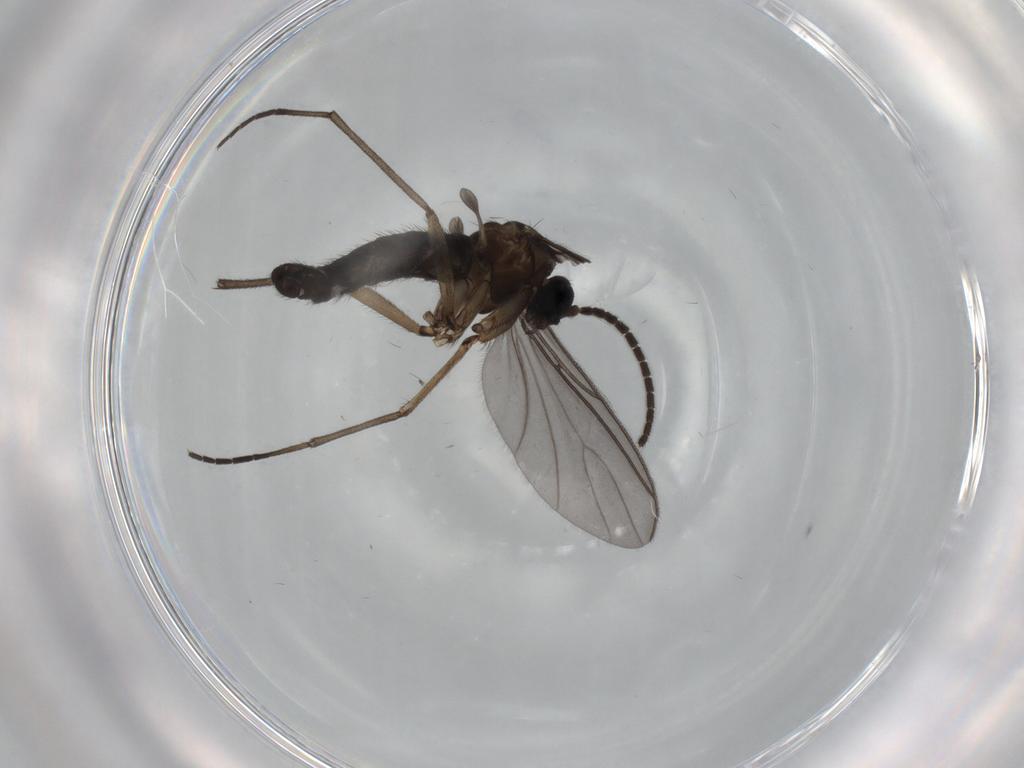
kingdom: Animalia
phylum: Arthropoda
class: Insecta
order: Diptera
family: Sciaridae
